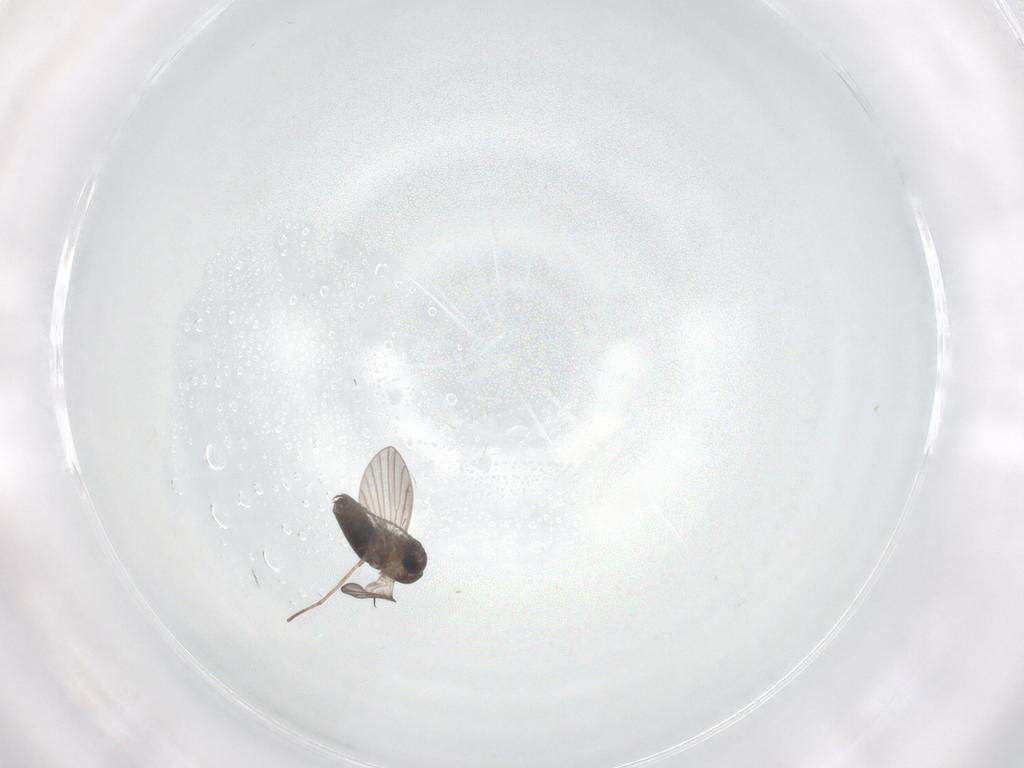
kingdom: Animalia
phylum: Arthropoda
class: Insecta
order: Diptera
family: Cecidomyiidae
